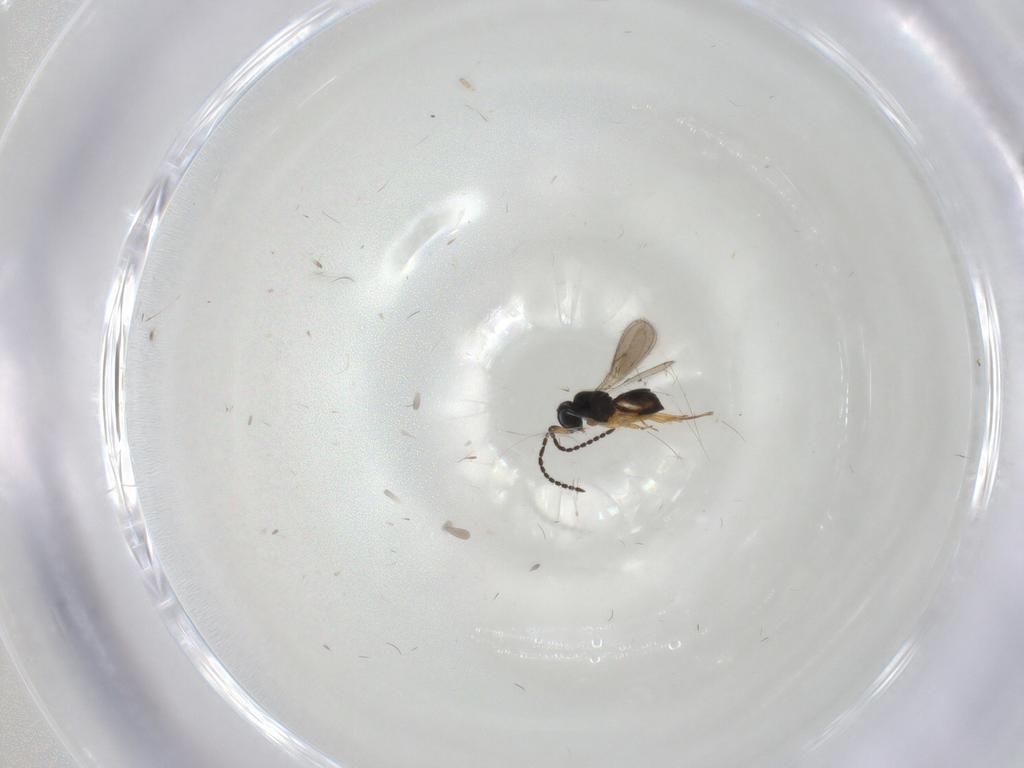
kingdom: Animalia
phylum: Arthropoda
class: Insecta
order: Hymenoptera
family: Scelionidae
